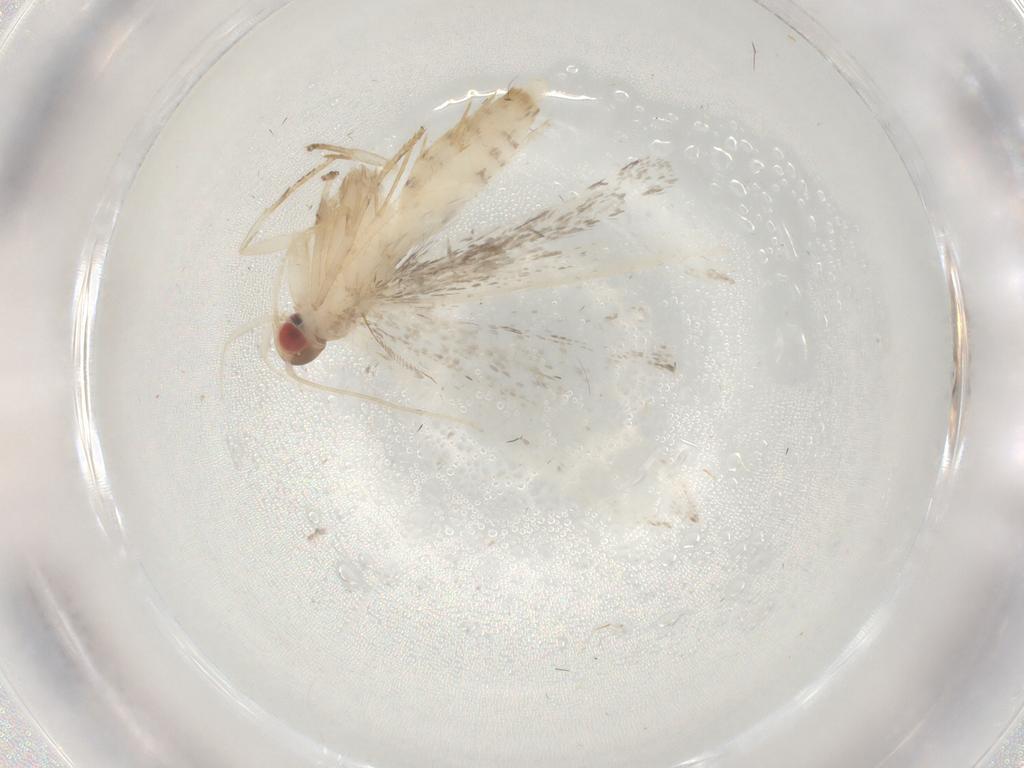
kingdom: Animalia
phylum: Arthropoda
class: Insecta
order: Lepidoptera
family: Gelechiidae
